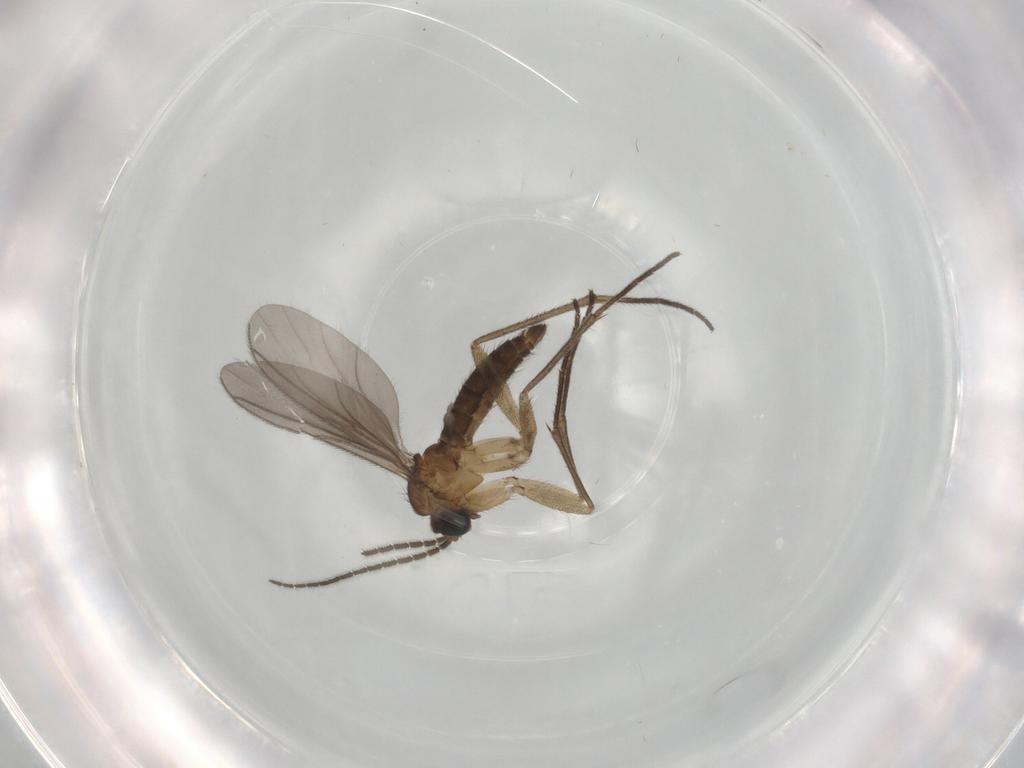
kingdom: Animalia
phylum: Arthropoda
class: Insecta
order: Diptera
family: Sciaridae
